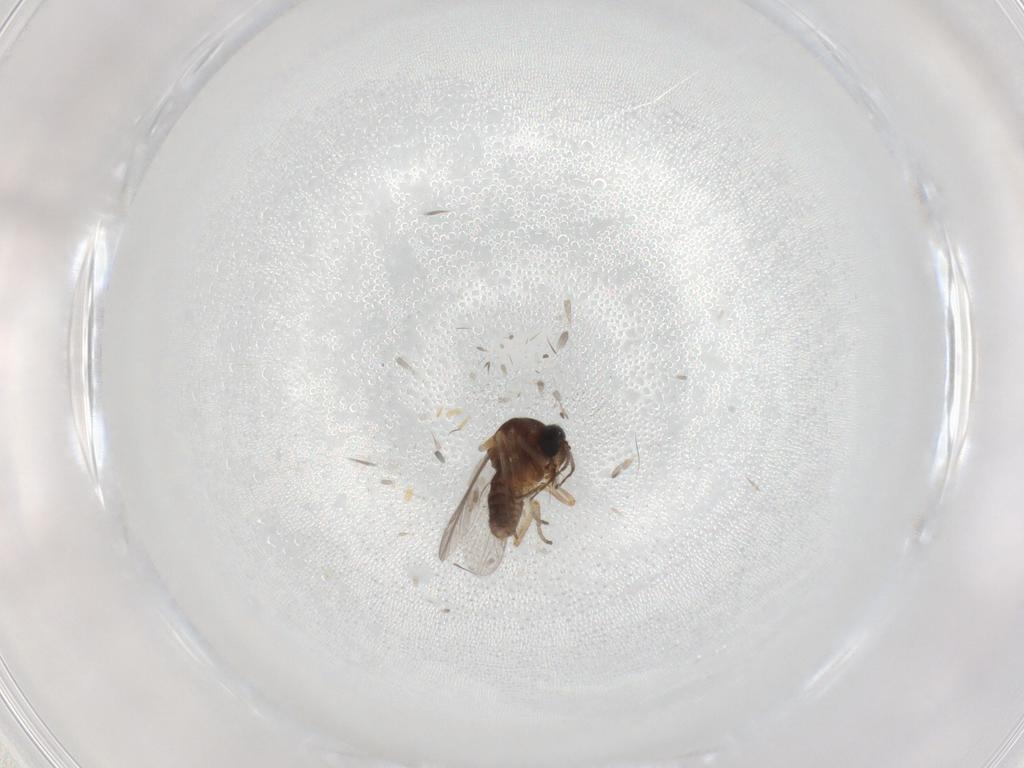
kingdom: Animalia
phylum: Arthropoda
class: Insecta
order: Diptera
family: Ceratopogonidae
